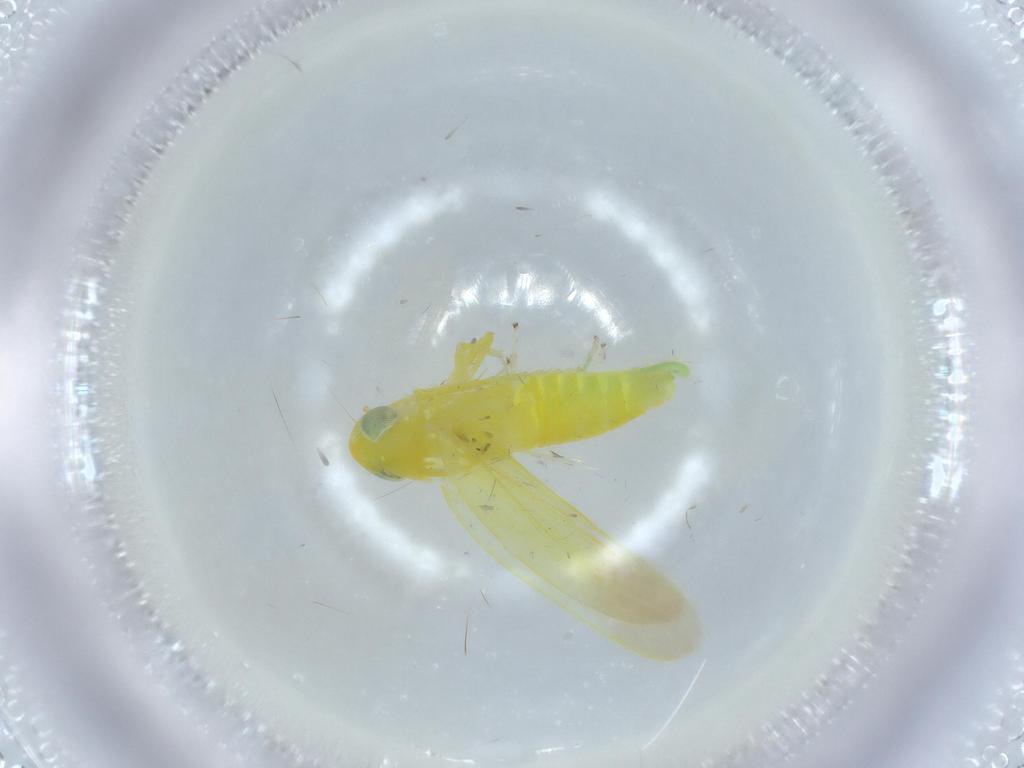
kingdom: Animalia
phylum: Arthropoda
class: Insecta
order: Hemiptera
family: Cicadellidae
